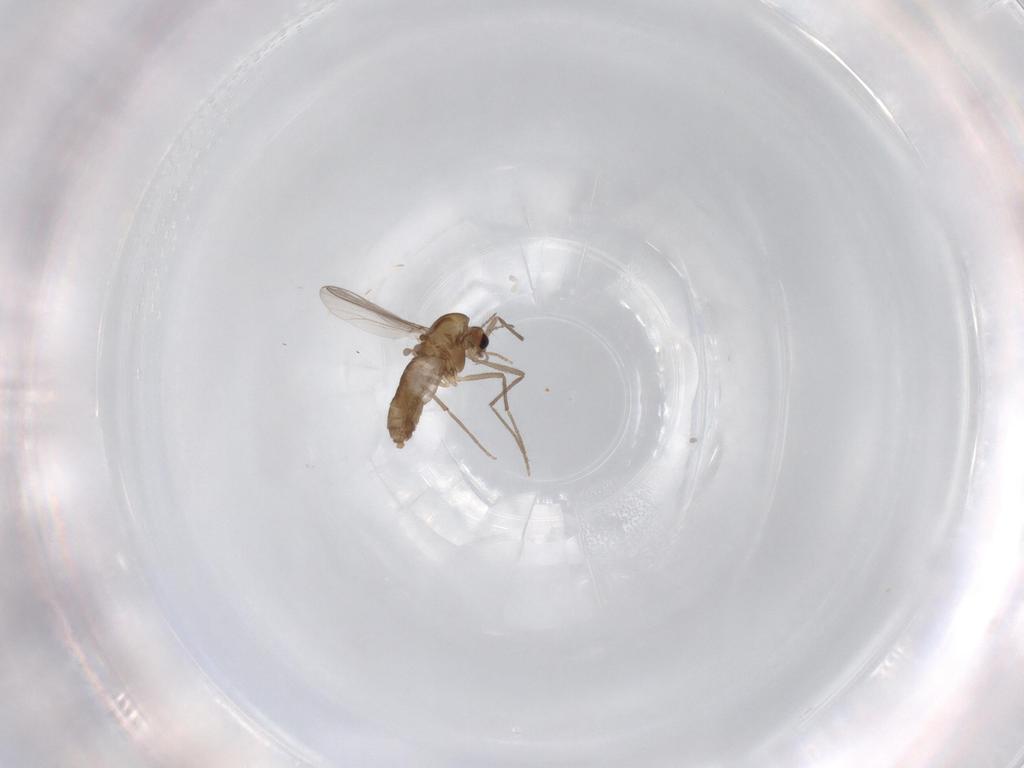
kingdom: Animalia
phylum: Arthropoda
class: Insecta
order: Diptera
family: Chironomidae
